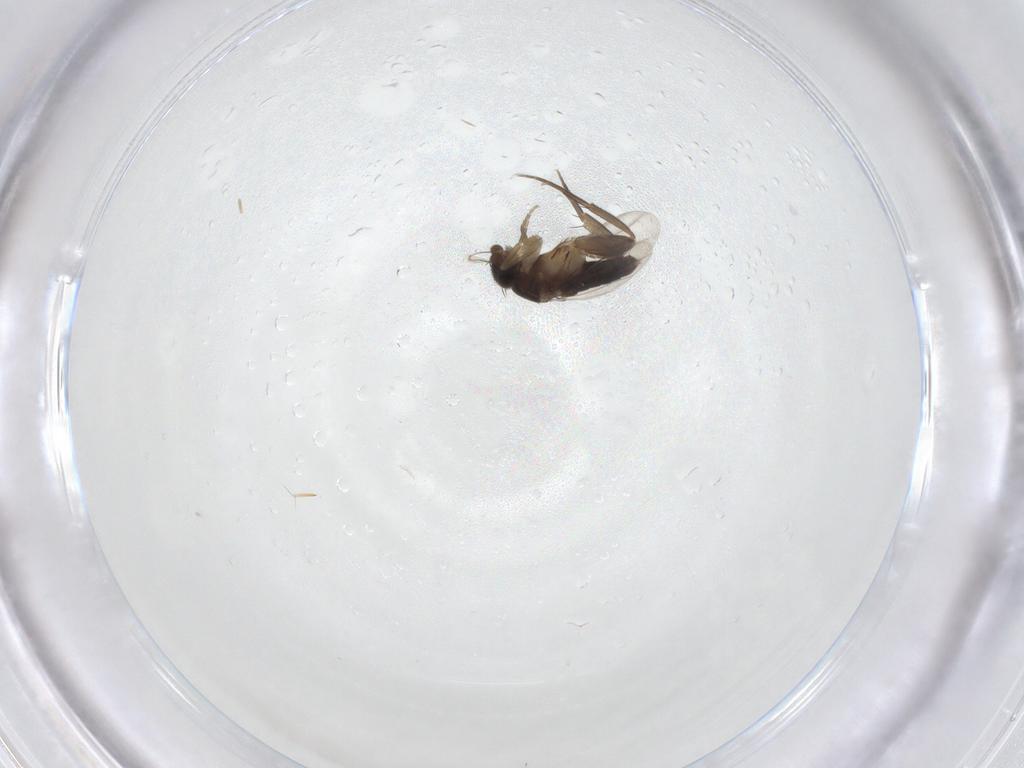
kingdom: Animalia
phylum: Arthropoda
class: Insecta
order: Diptera
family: Phoridae
